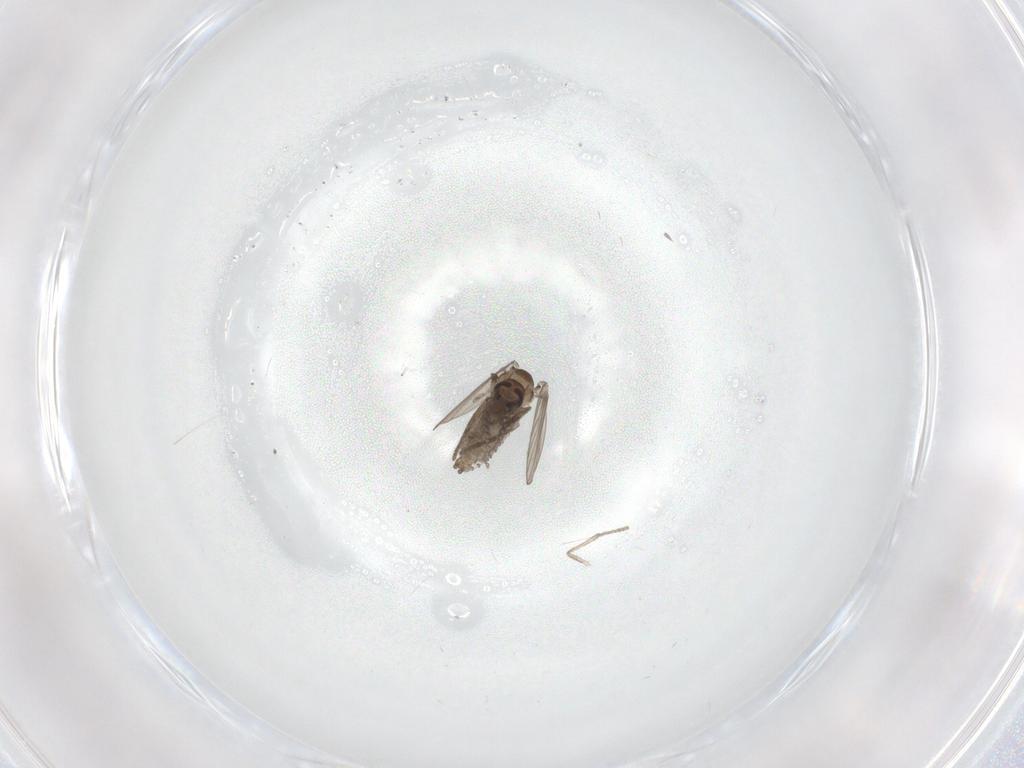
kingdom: Animalia
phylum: Arthropoda
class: Insecta
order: Diptera
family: Psychodidae
